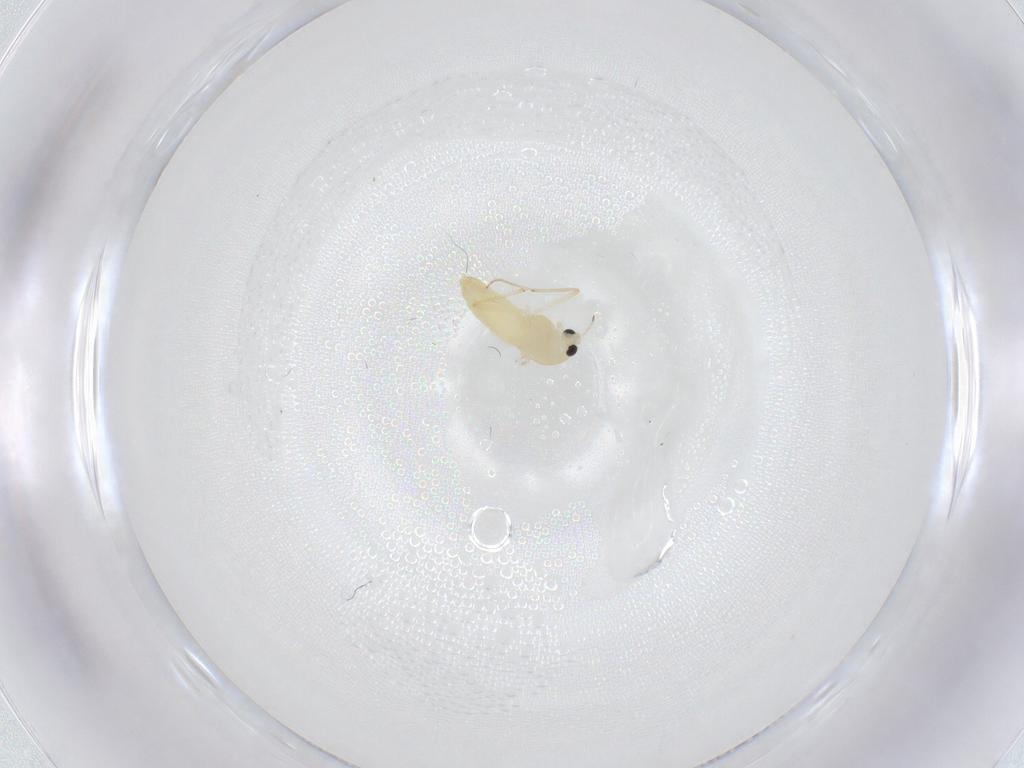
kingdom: Animalia
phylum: Arthropoda
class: Insecta
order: Diptera
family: Chironomidae
